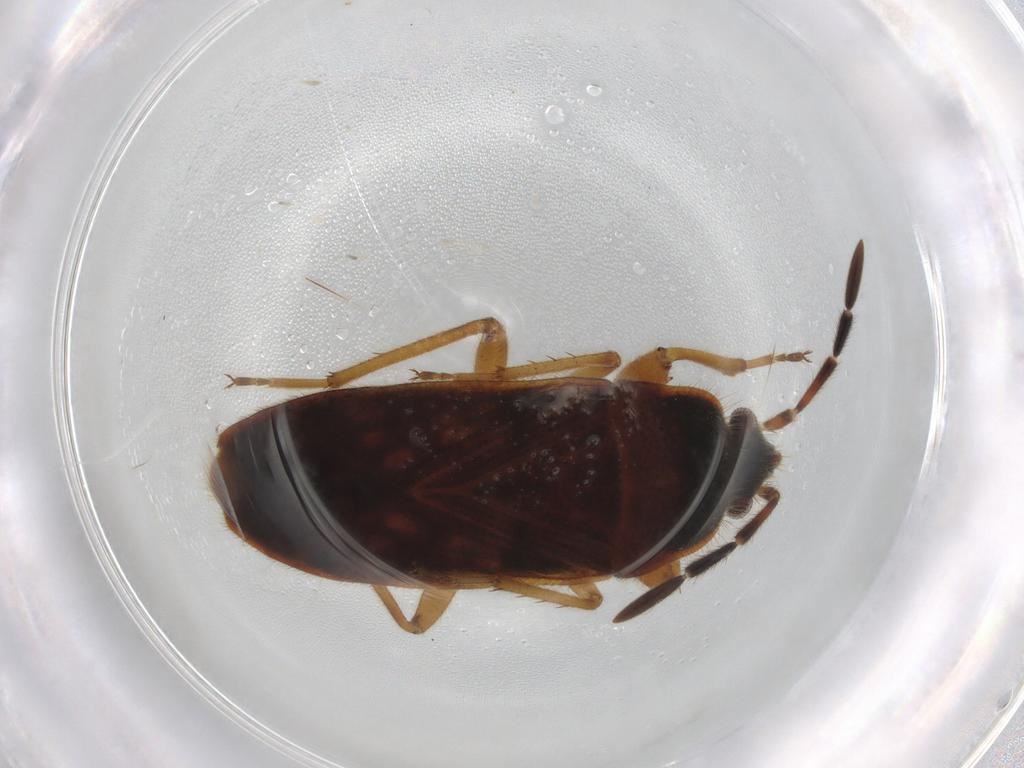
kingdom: Animalia
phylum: Arthropoda
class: Insecta
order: Hemiptera
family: Rhyparochromidae
